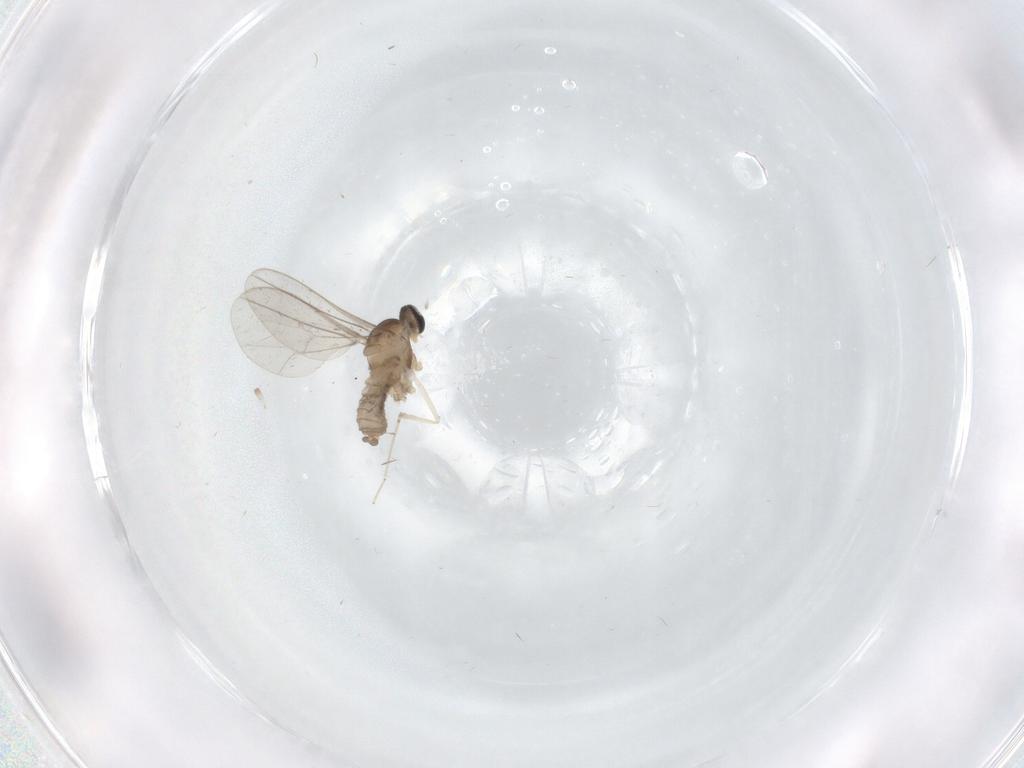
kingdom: Animalia
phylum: Arthropoda
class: Insecta
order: Diptera
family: Cecidomyiidae
